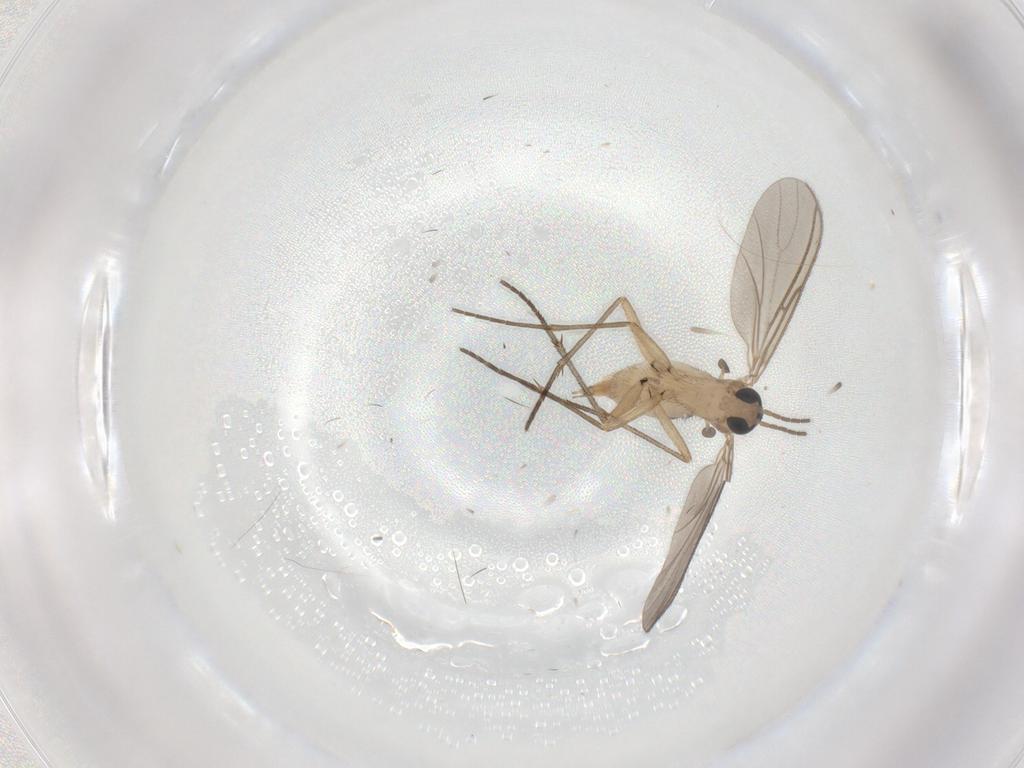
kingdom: Animalia
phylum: Arthropoda
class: Insecta
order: Diptera
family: Sciaridae
